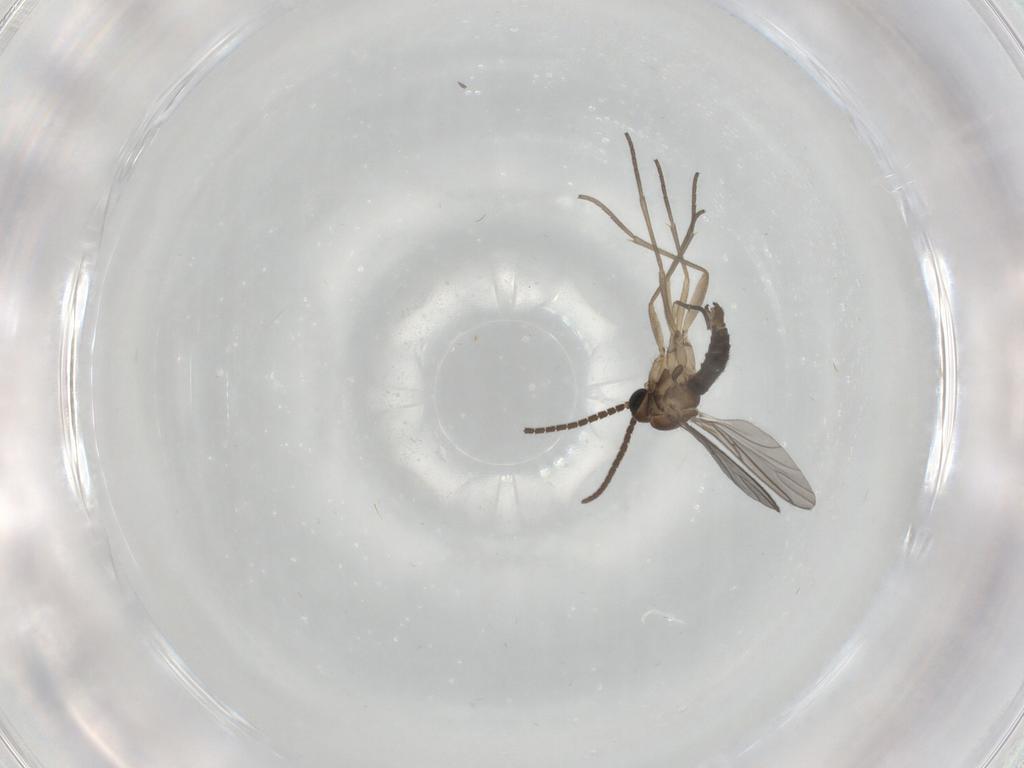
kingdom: Animalia
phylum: Arthropoda
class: Insecta
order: Diptera
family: Sciaridae
